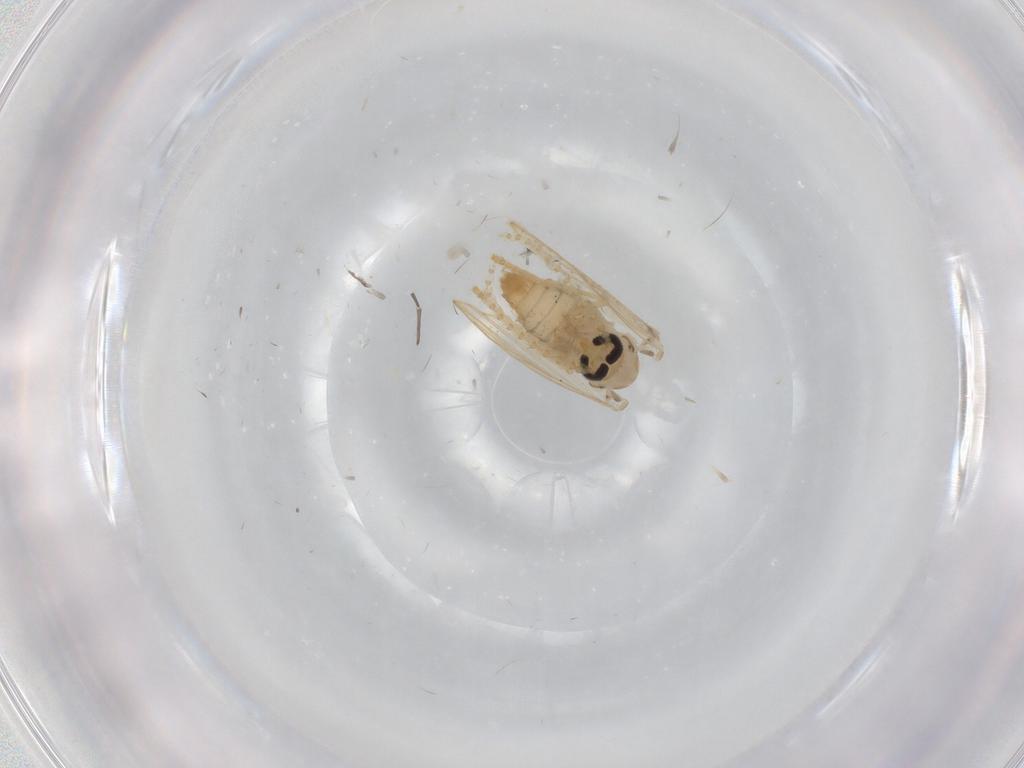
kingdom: Animalia
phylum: Arthropoda
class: Insecta
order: Diptera
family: Psychodidae
